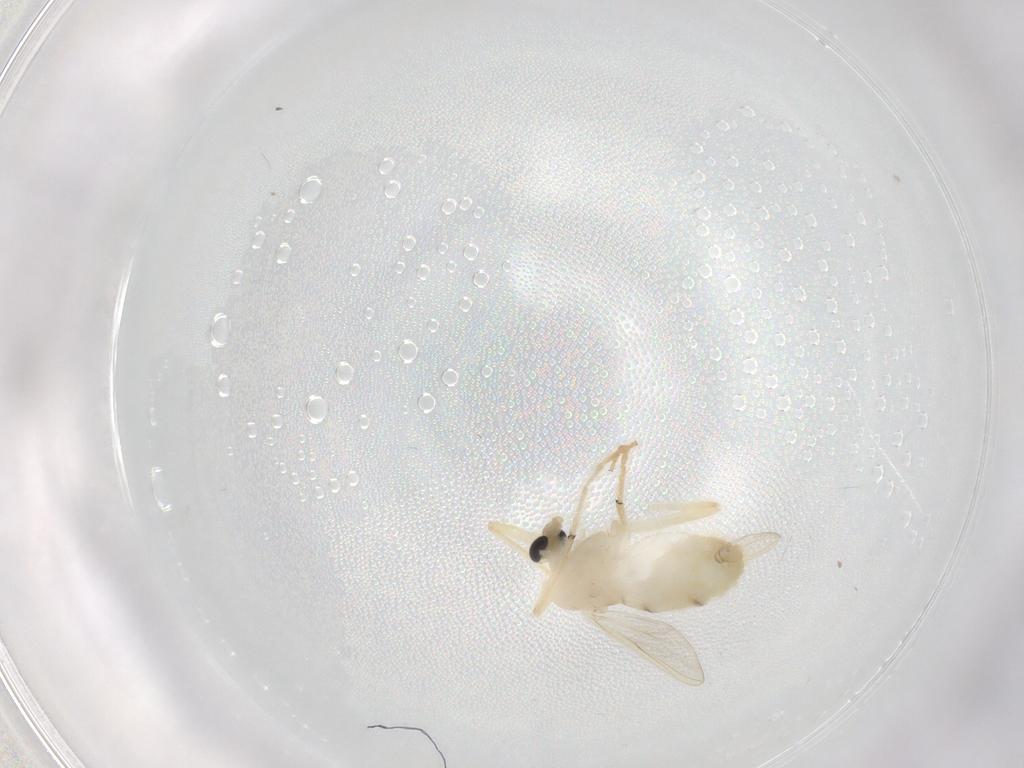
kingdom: Animalia
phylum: Arthropoda
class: Insecta
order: Diptera
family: Chironomidae
